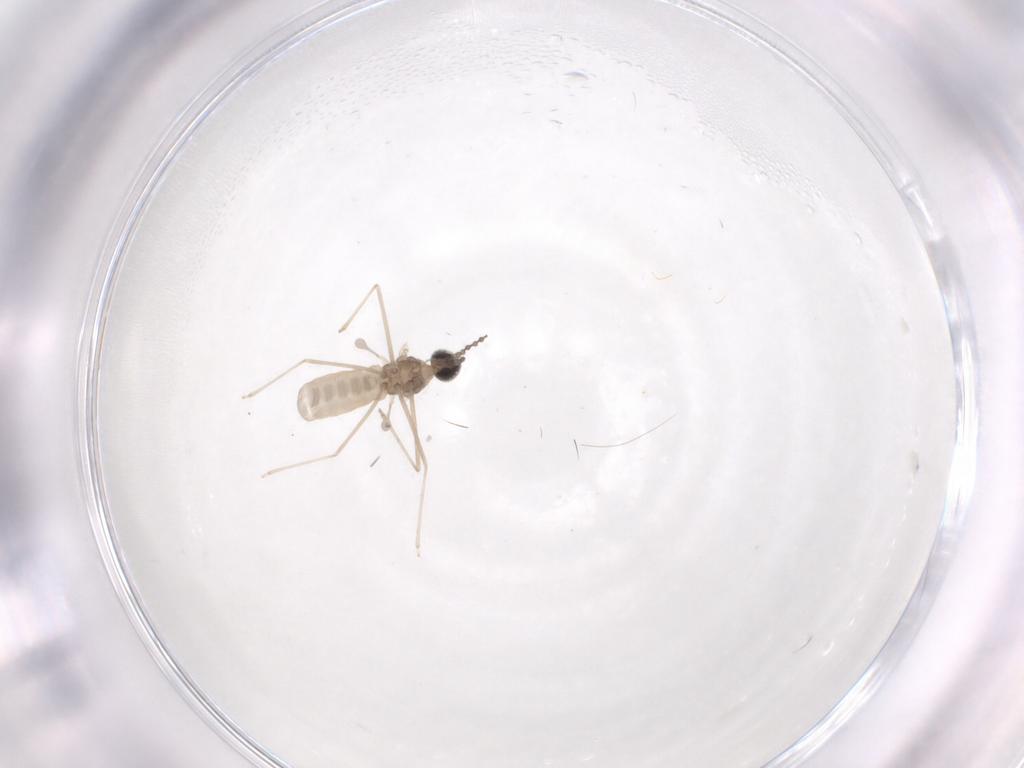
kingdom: Animalia
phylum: Arthropoda
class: Insecta
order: Diptera
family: Cecidomyiidae
